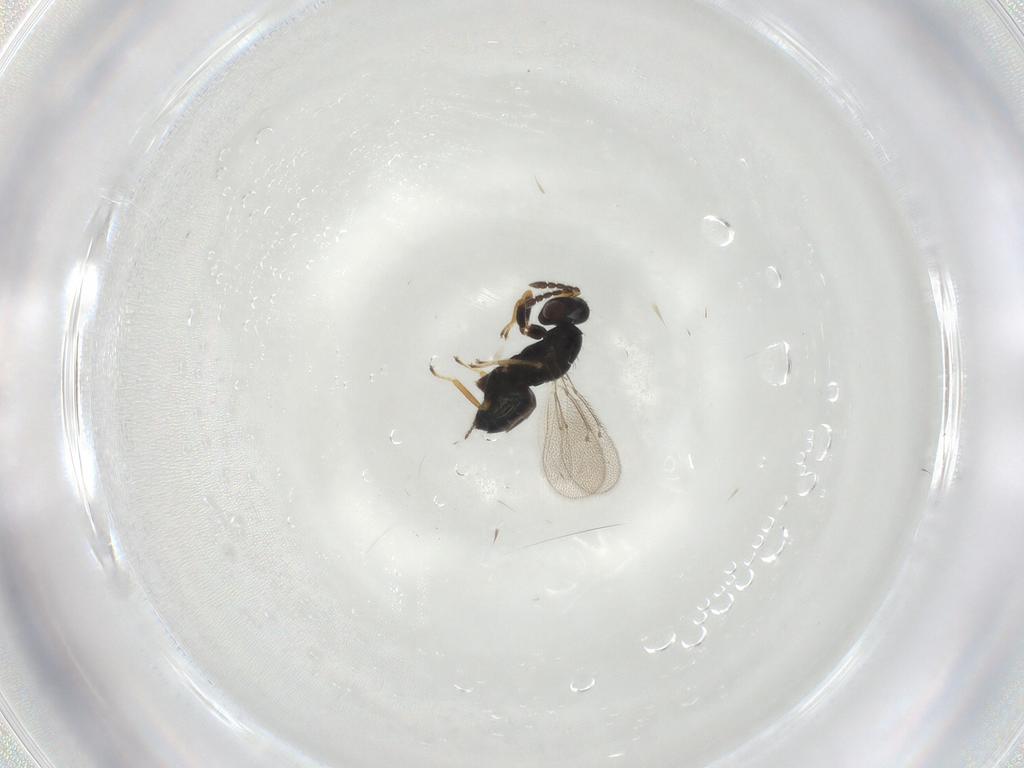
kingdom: Animalia
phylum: Arthropoda
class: Insecta
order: Hymenoptera
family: Eulophidae
